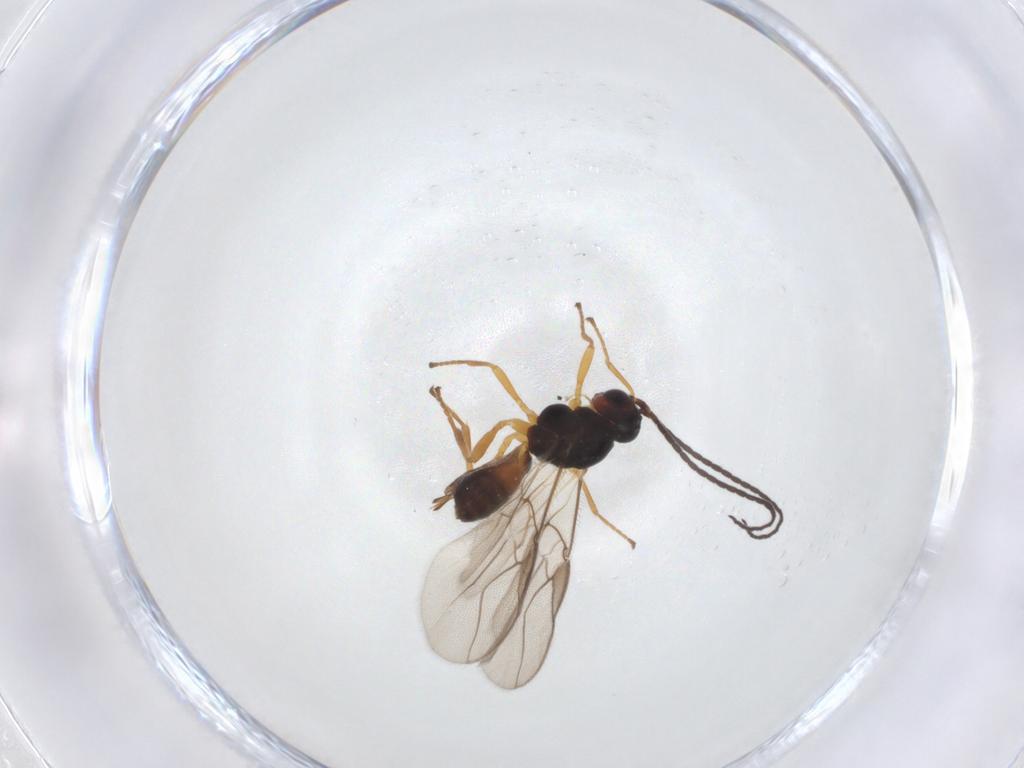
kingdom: Animalia
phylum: Arthropoda
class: Insecta
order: Hymenoptera
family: Braconidae
